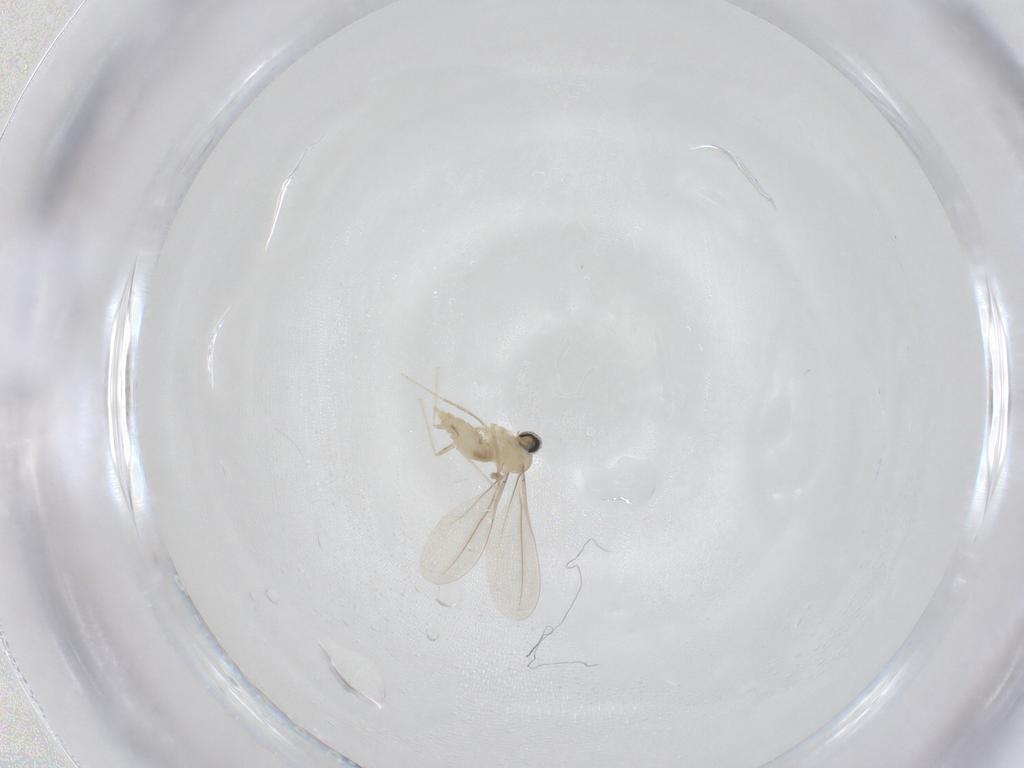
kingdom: Animalia
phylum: Arthropoda
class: Insecta
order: Diptera
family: Cecidomyiidae
